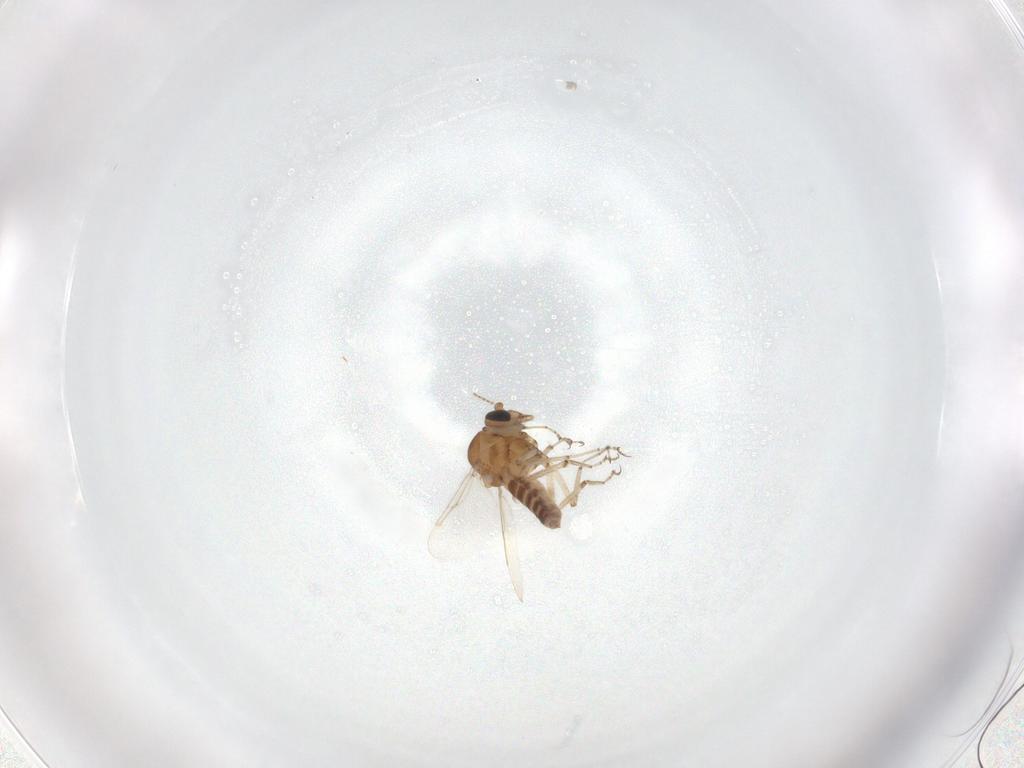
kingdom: Animalia
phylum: Arthropoda
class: Insecta
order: Diptera
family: Ceratopogonidae
